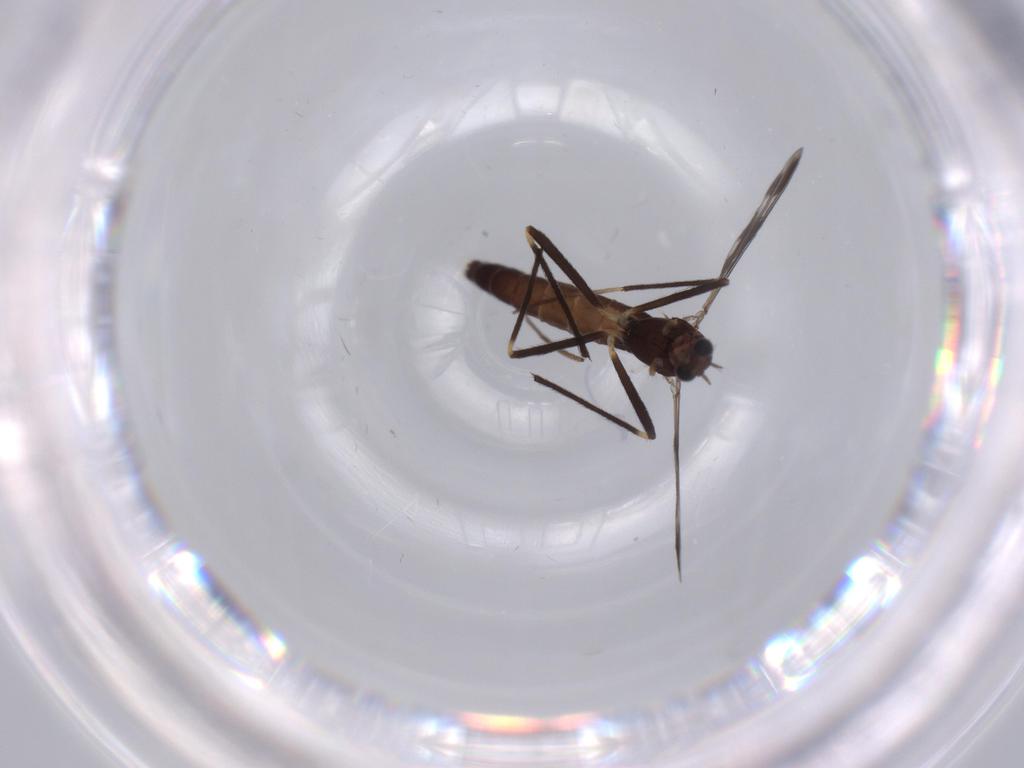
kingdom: Animalia
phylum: Arthropoda
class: Insecta
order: Diptera
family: Chironomidae
